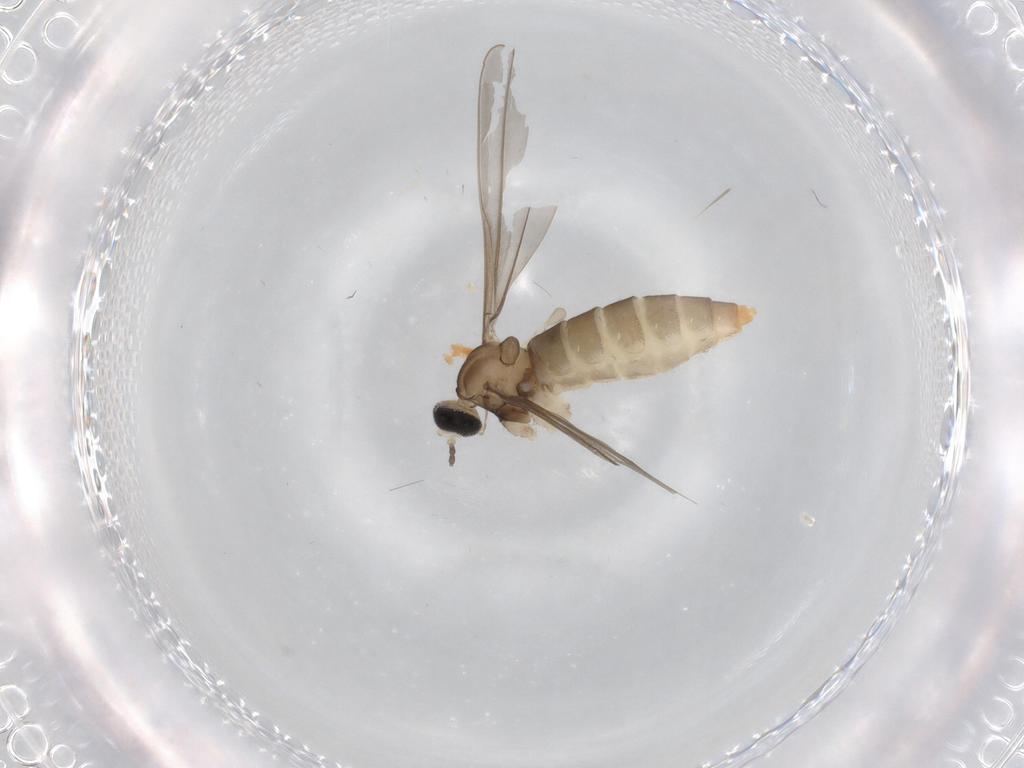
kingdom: Animalia
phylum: Arthropoda
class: Insecta
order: Diptera
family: Cecidomyiidae
